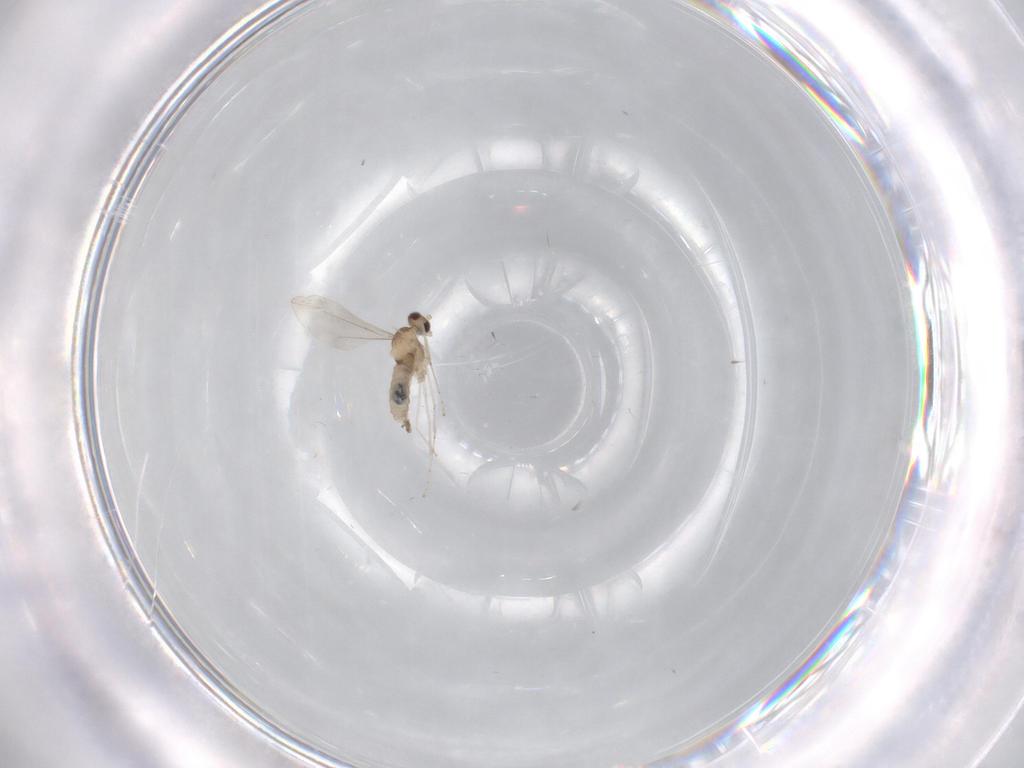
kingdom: Animalia
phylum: Arthropoda
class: Insecta
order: Diptera
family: Cecidomyiidae
